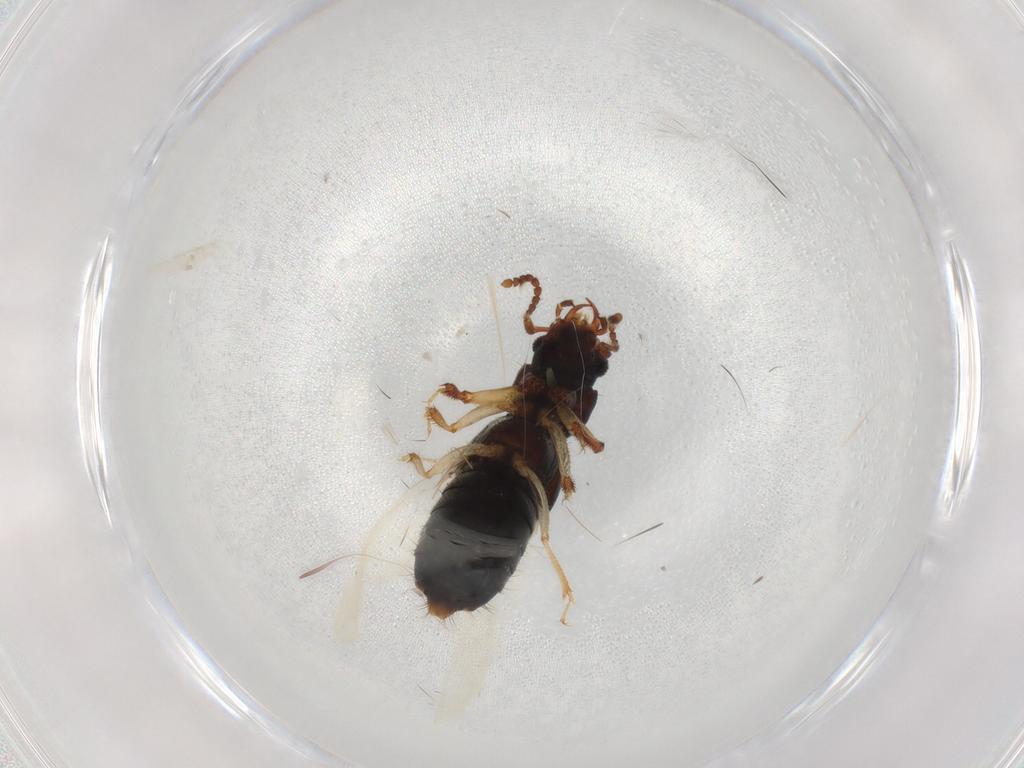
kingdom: Animalia
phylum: Arthropoda
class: Insecta
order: Coleoptera
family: Staphylinidae
